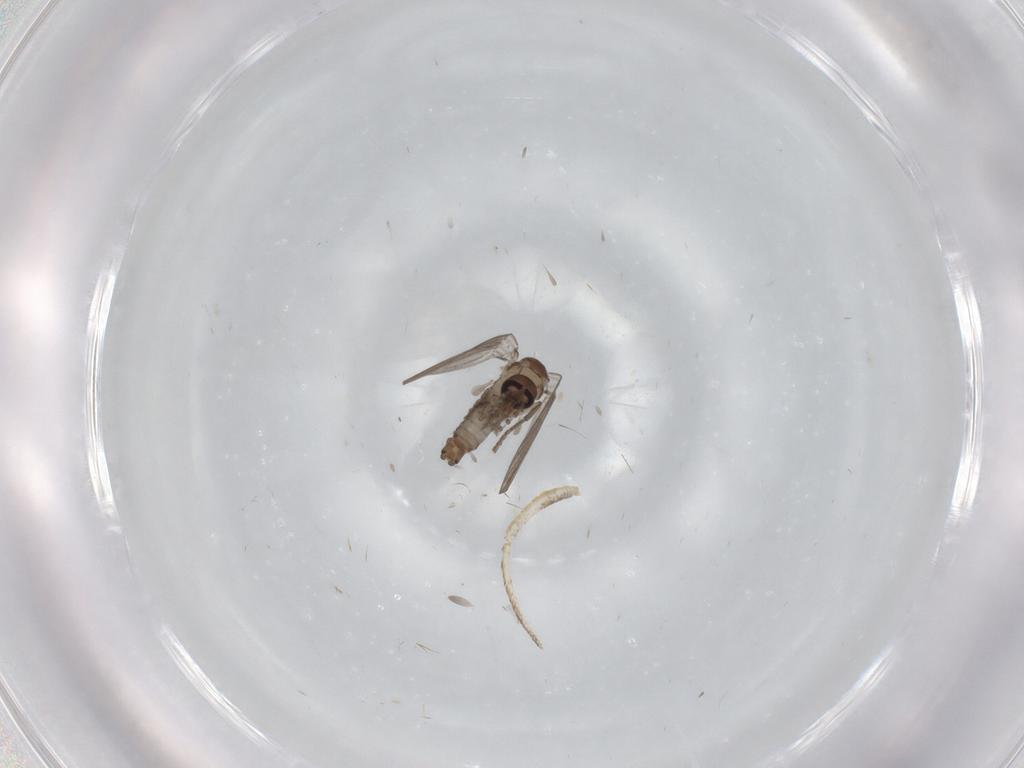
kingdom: Animalia
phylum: Arthropoda
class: Insecta
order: Diptera
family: Psychodidae
